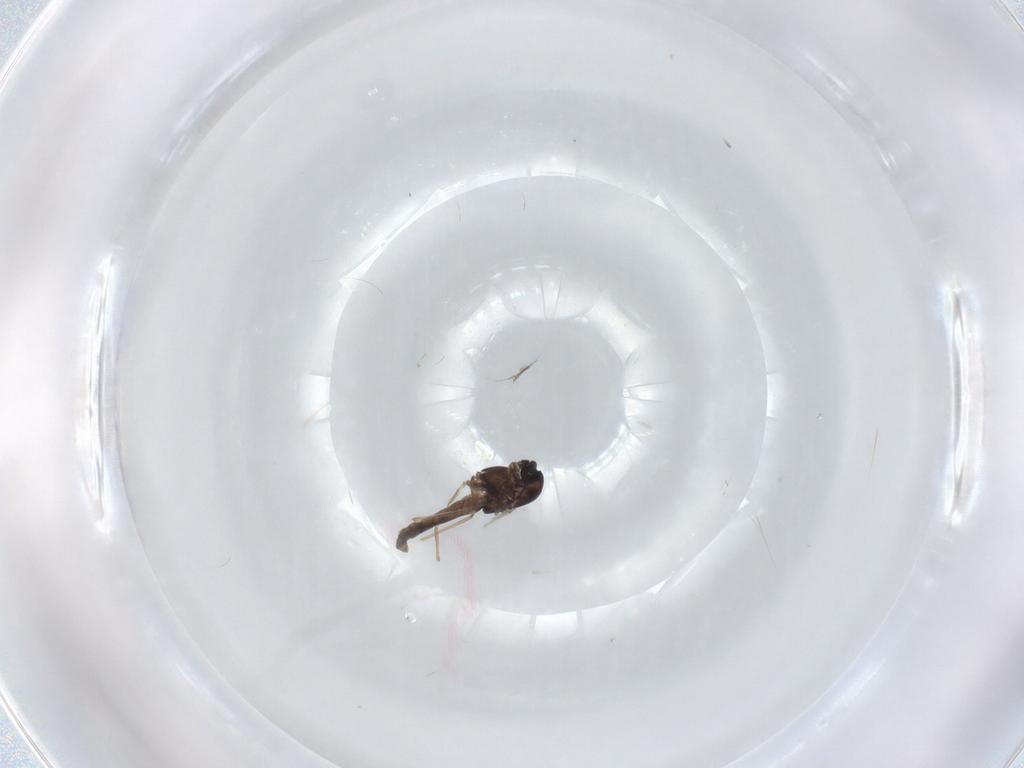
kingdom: Animalia
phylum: Arthropoda
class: Insecta
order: Diptera
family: Chironomidae
